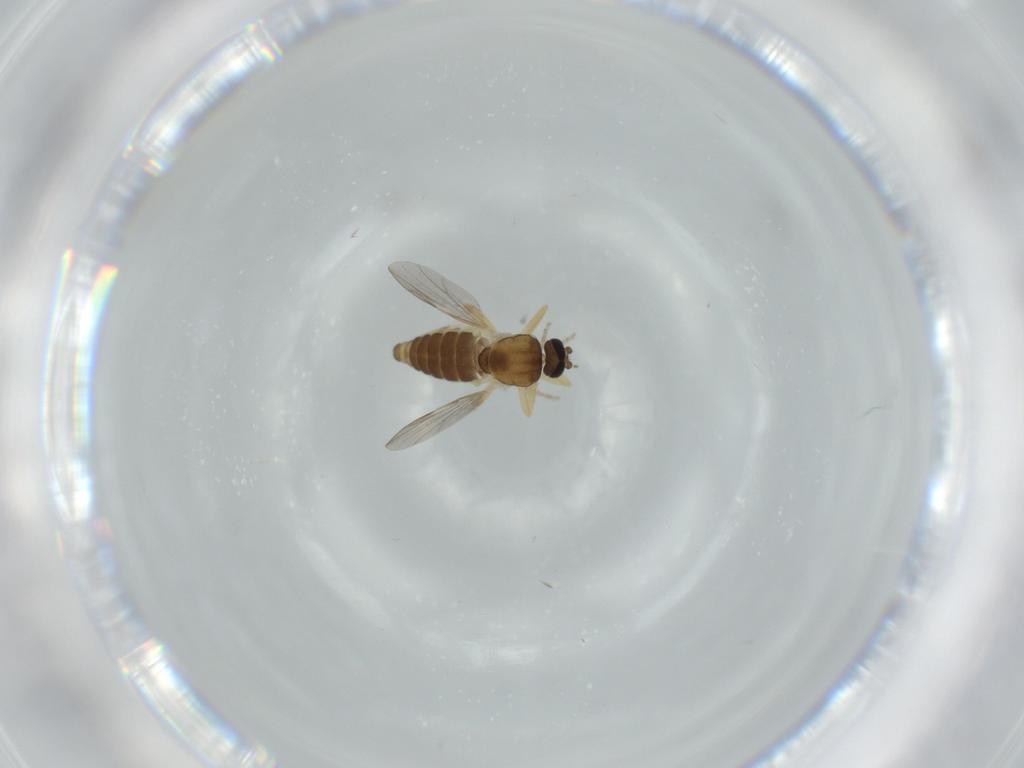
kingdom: Animalia
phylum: Arthropoda
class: Insecta
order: Diptera
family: Ceratopogonidae
